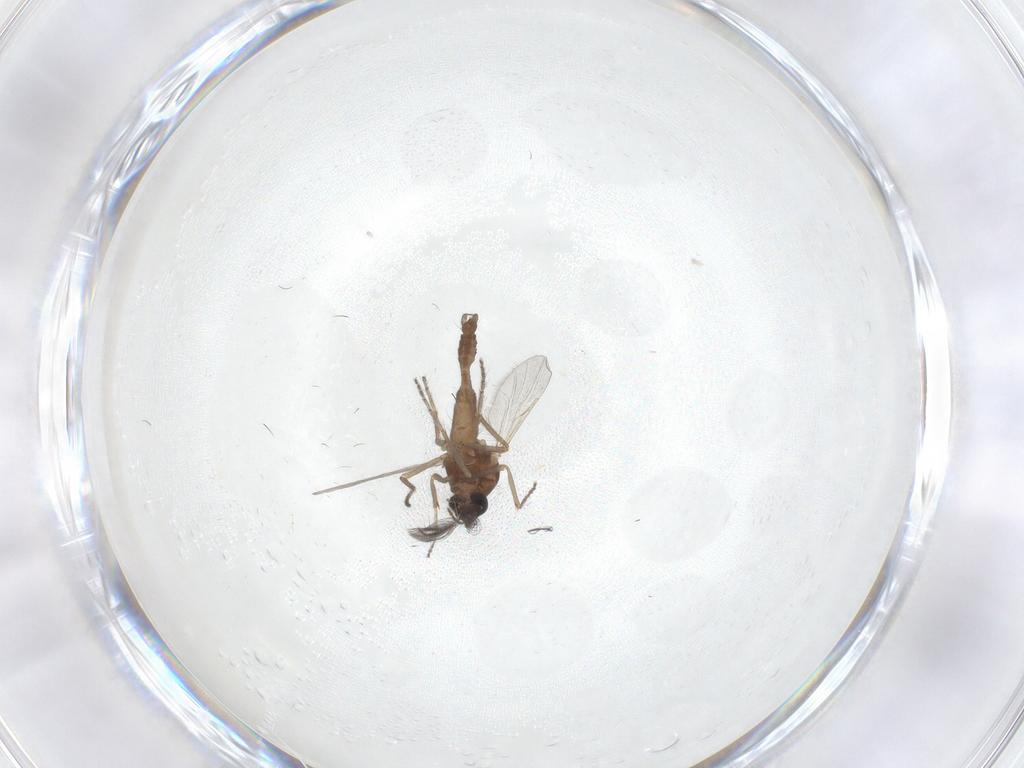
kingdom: Animalia
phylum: Arthropoda
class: Insecta
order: Diptera
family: Ceratopogonidae
